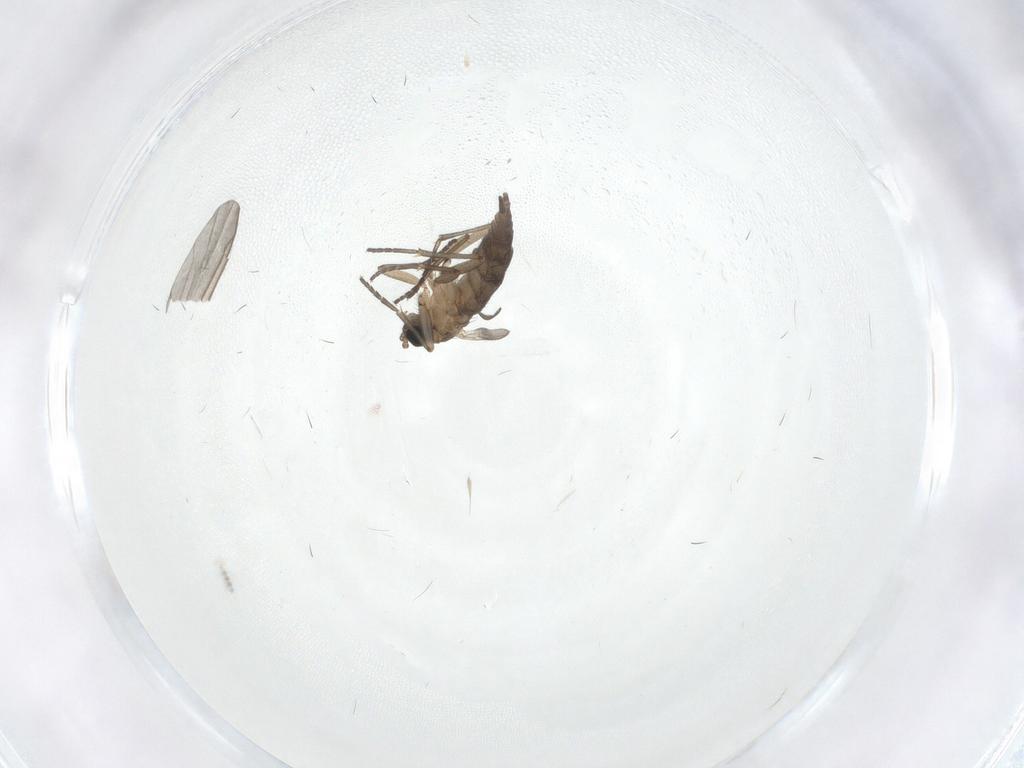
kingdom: Animalia
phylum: Arthropoda
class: Insecta
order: Diptera
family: Sciaridae
